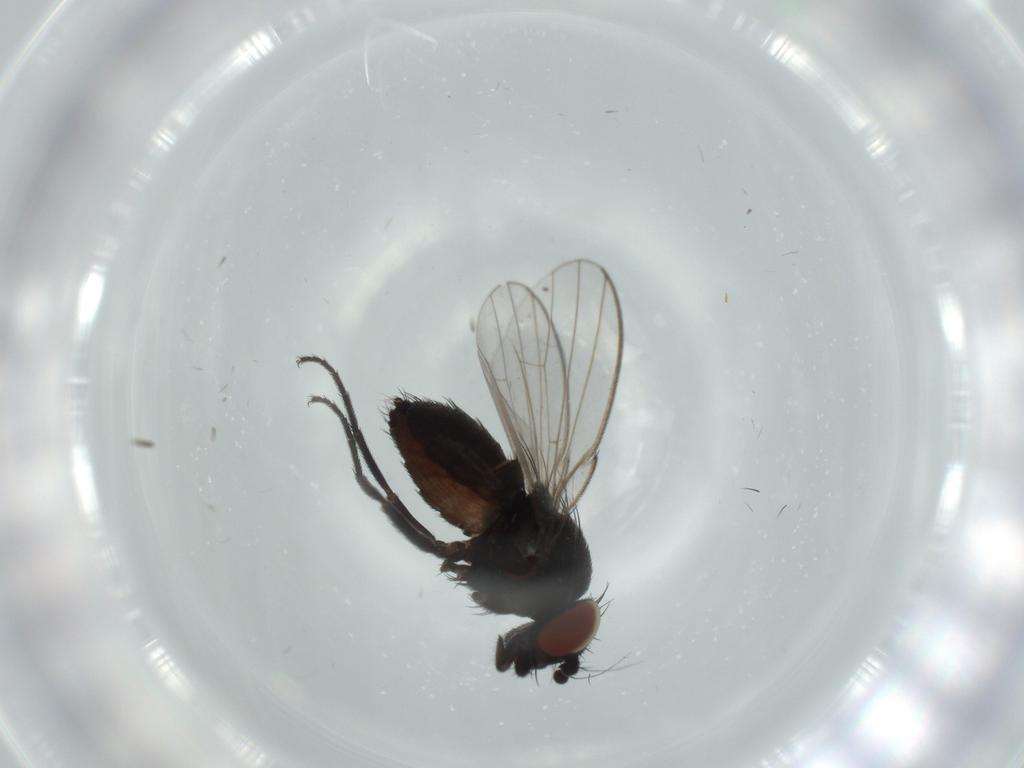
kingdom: Animalia
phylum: Arthropoda
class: Insecta
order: Diptera
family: Milichiidae
